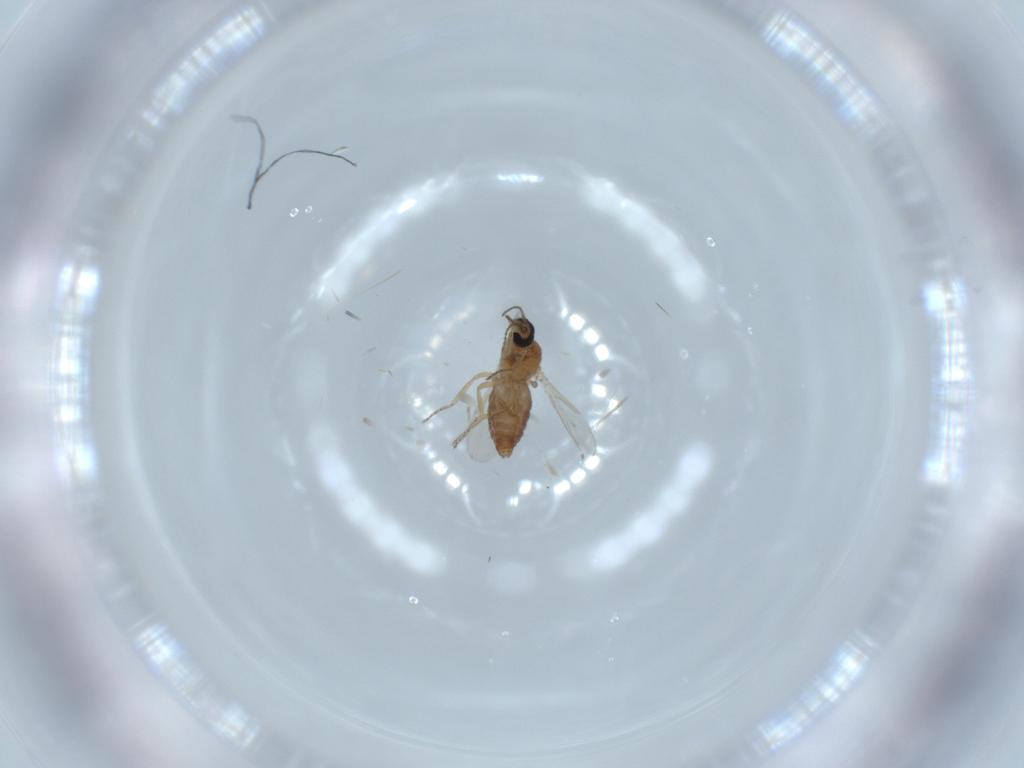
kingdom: Animalia
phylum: Arthropoda
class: Insecta
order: Diptera
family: Ceratopogonidae
